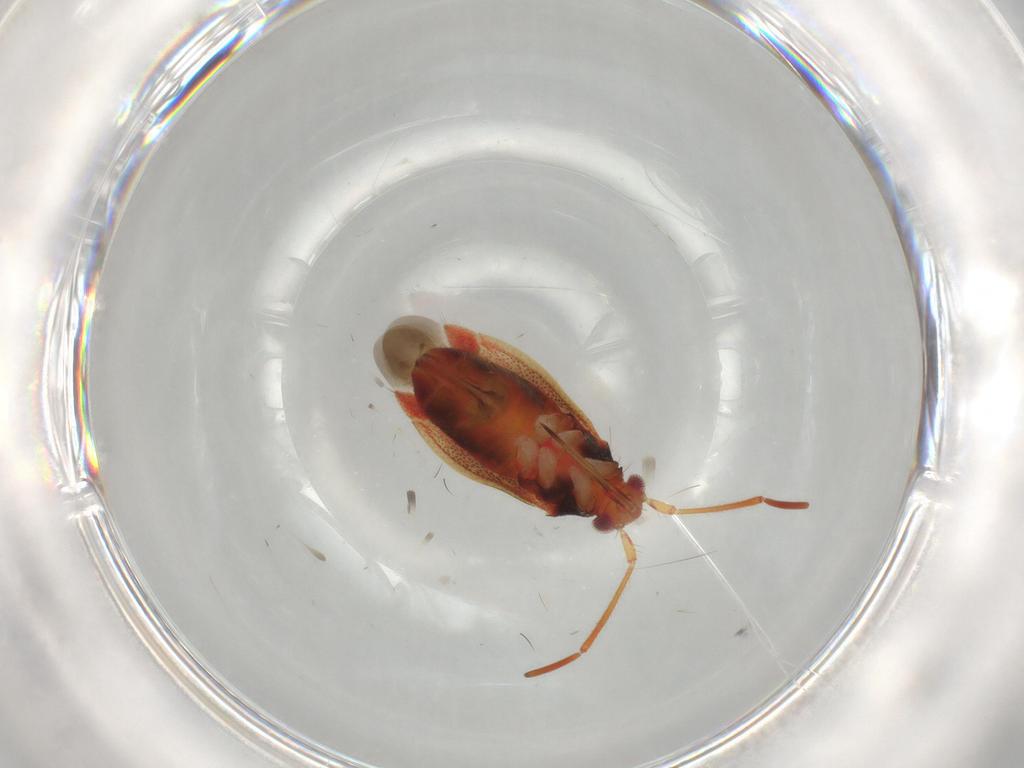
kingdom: Animalia
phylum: Arthropoda
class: Insecta
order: Hemiptera
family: Miridae
